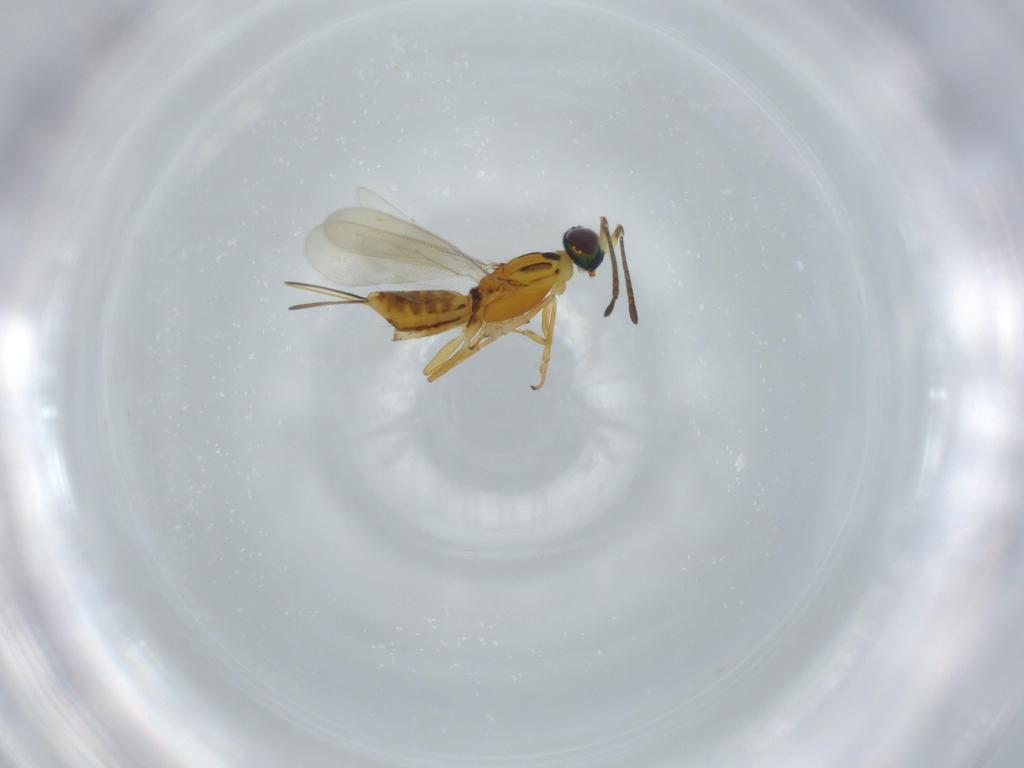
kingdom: Animalia
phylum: Arthropoda
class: Insecta
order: Hymenoptera
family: Eupelmidae
